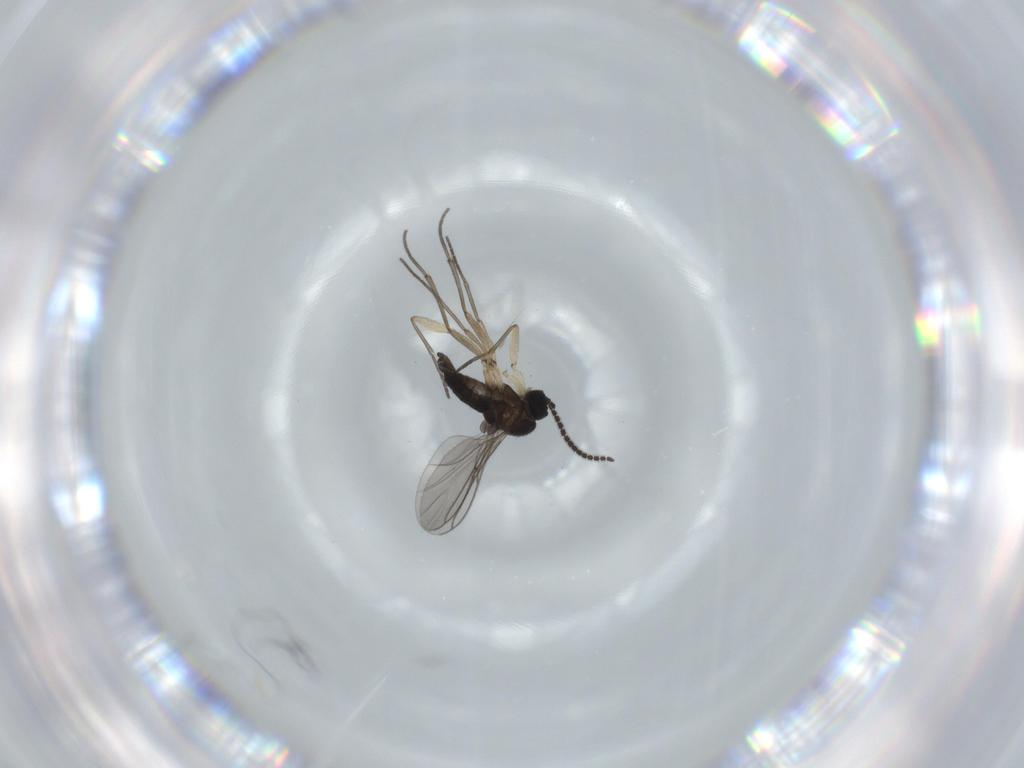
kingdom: Animalia
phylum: Arthropoda
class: Insecta
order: Diptera
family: Sciaridae
